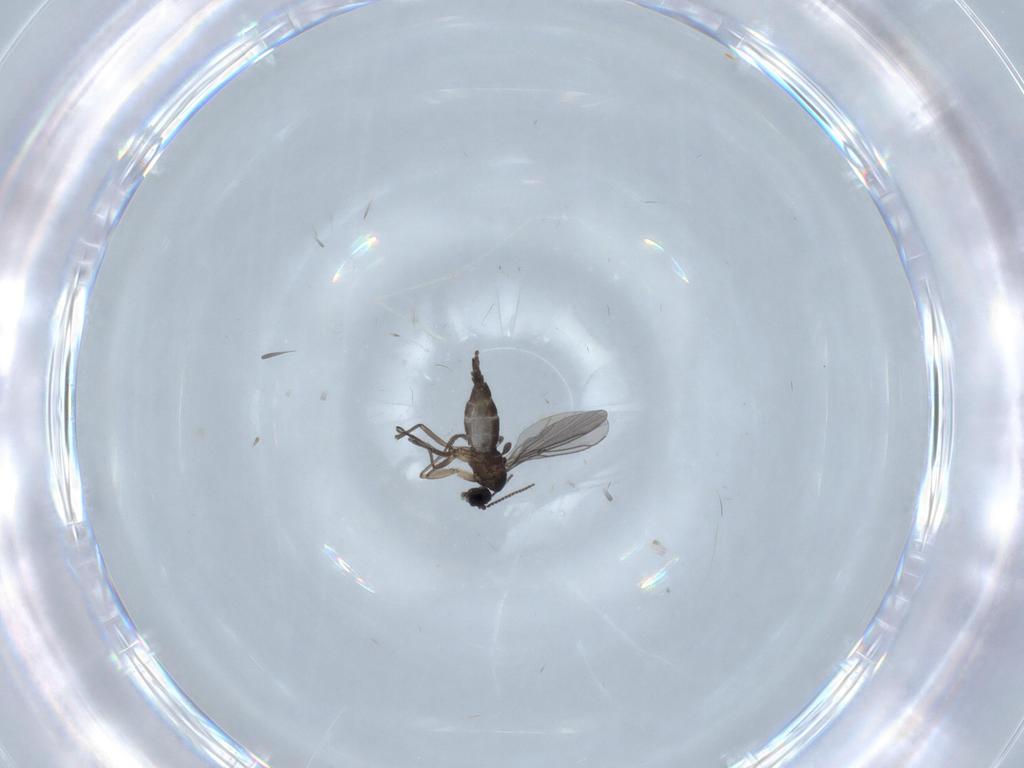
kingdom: Animalia
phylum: Arthropoda
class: Insecta
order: Diptera
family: Sciaridae
